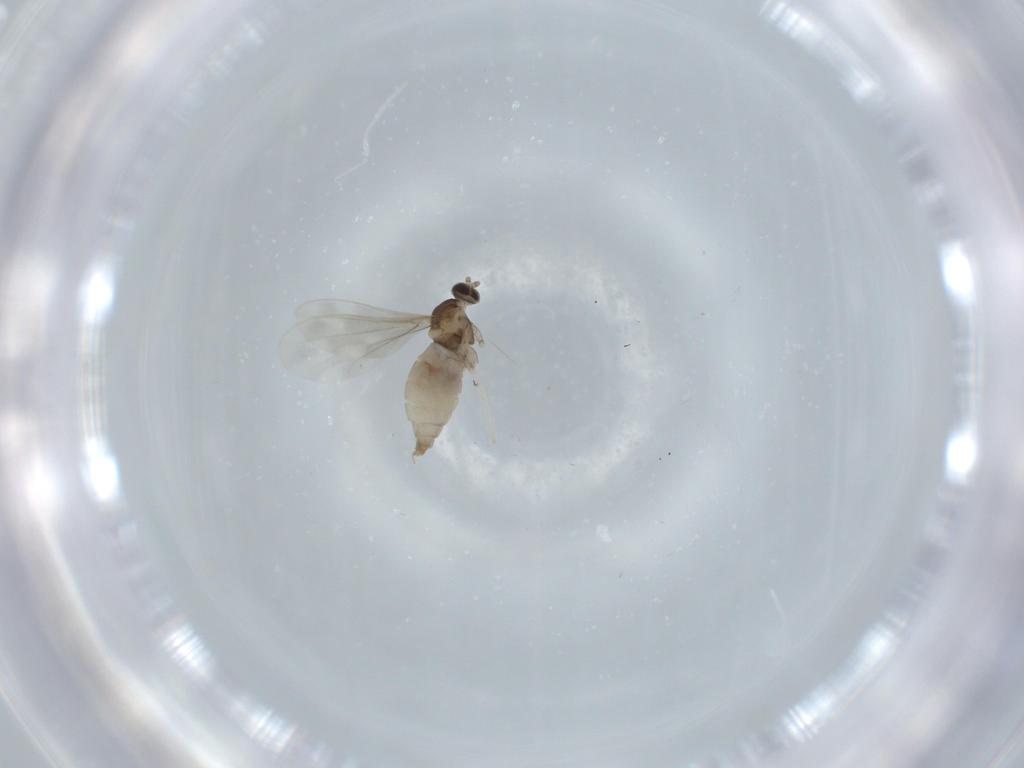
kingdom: Animalia
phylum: Arthropoda
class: Insecta
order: Diptera
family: Cecidomyiidae
